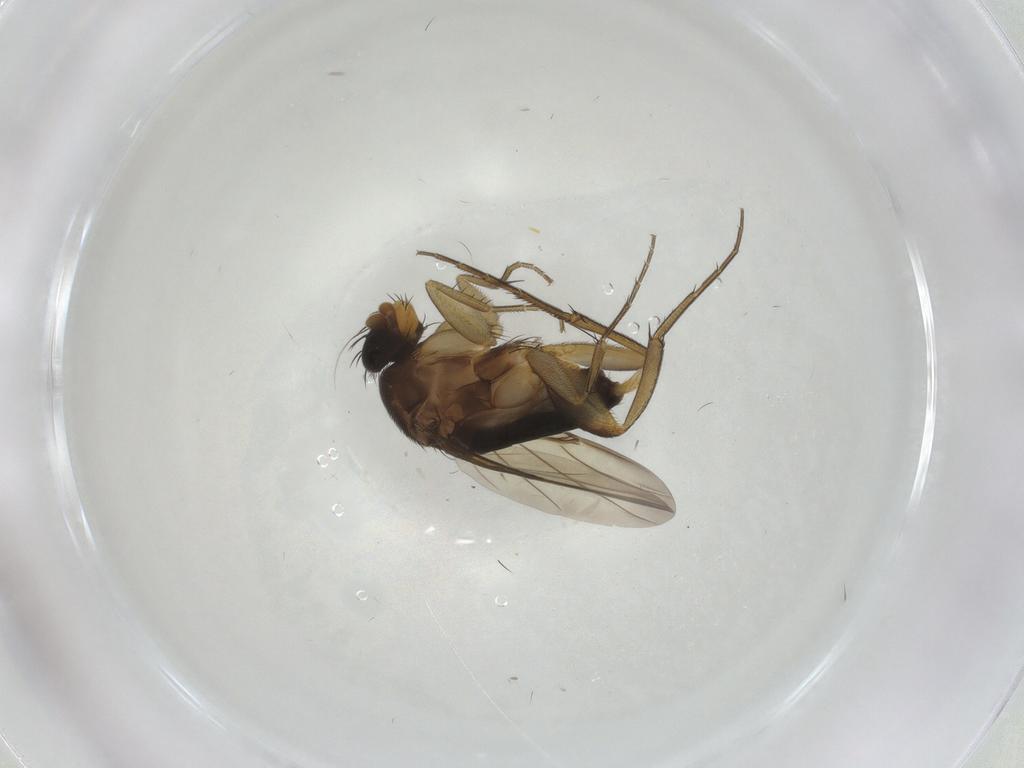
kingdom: Animalia
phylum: Arthropoda
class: Insecta
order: Diptera
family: Phoridae
